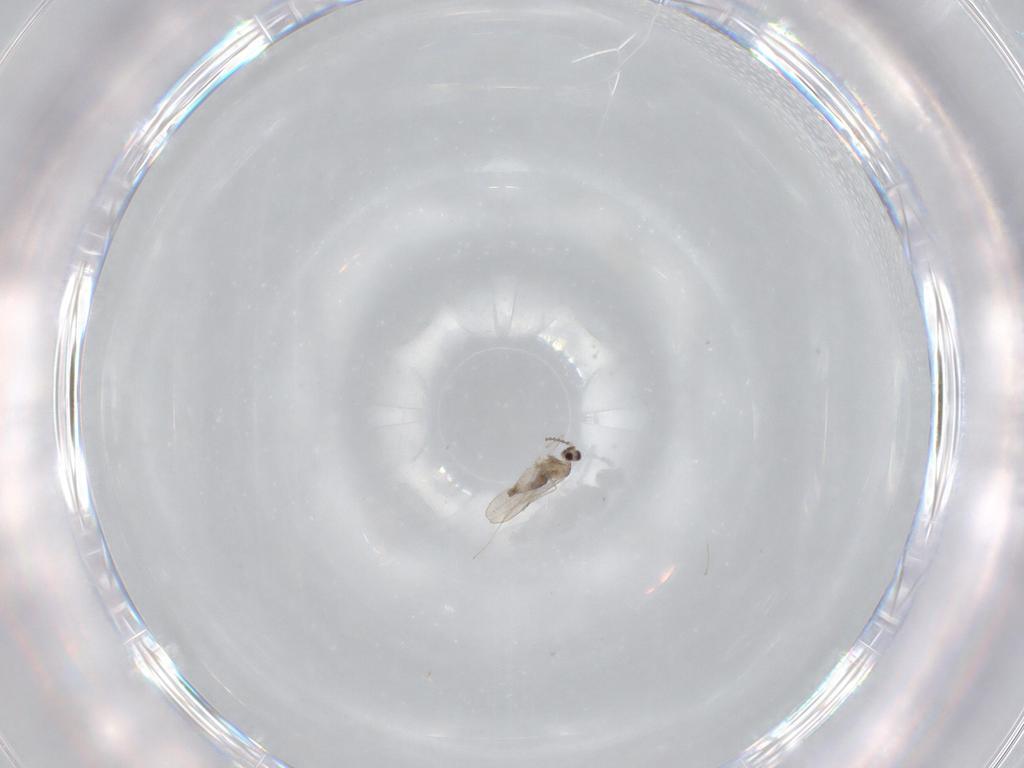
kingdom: Animalia
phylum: Arthropoda
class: Insecta
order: Diptera
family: Cecidomyiidae
